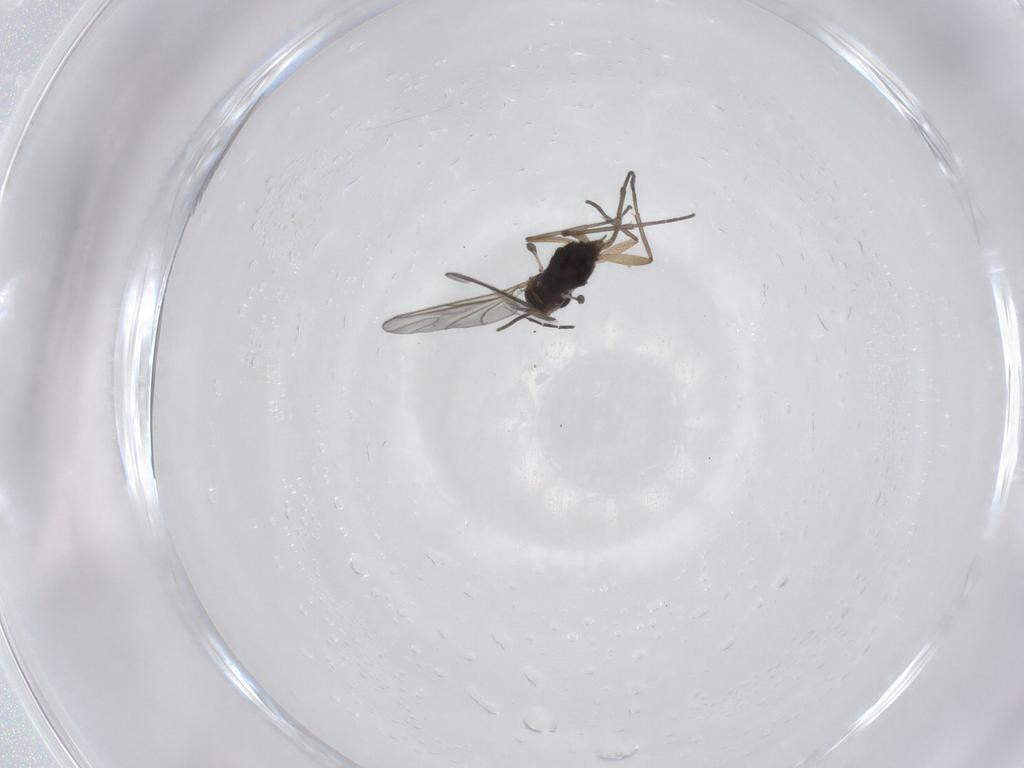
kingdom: Animalia
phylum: Arthropoda
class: Insecta
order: Diptera
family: Sciaridae
